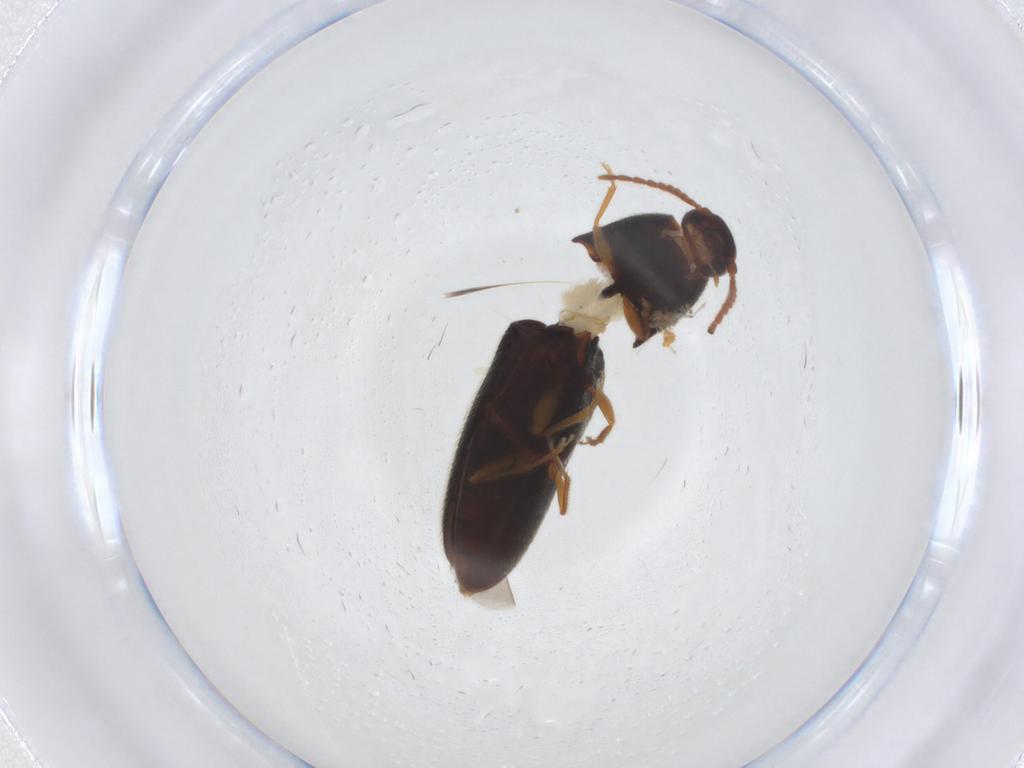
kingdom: Animalia
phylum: Arthropoda
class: Insecta
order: Coleoptera
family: Elateridae
